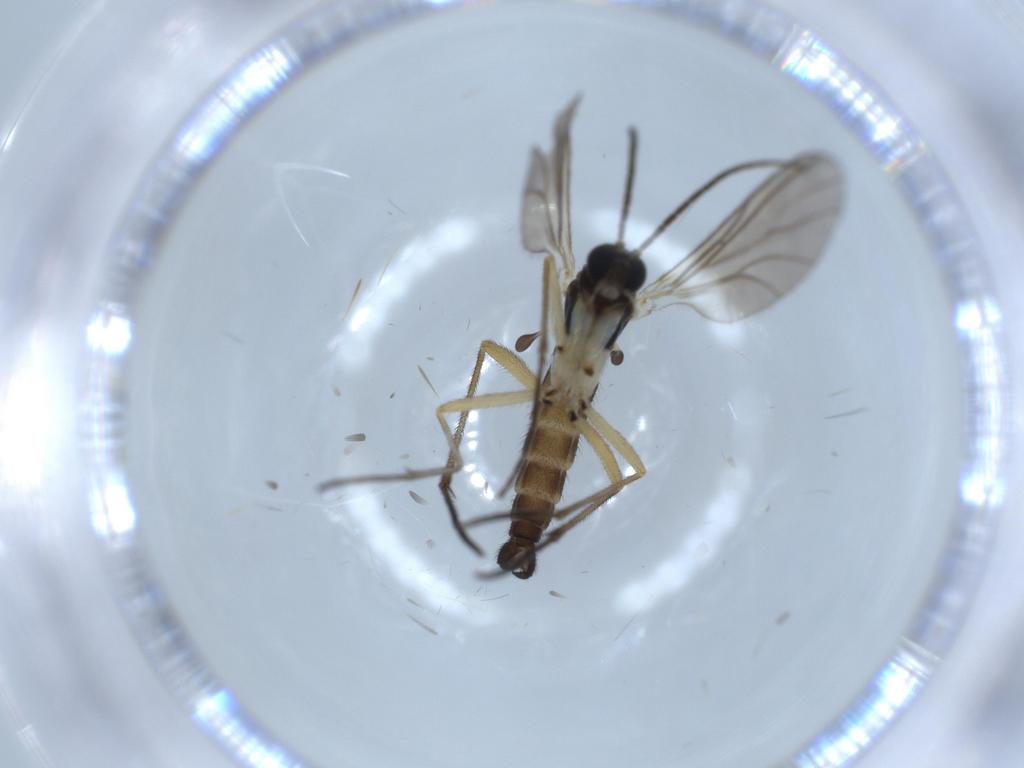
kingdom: Animalia
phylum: Arthropoda
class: Insecta
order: Diptera
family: Sciaridae
